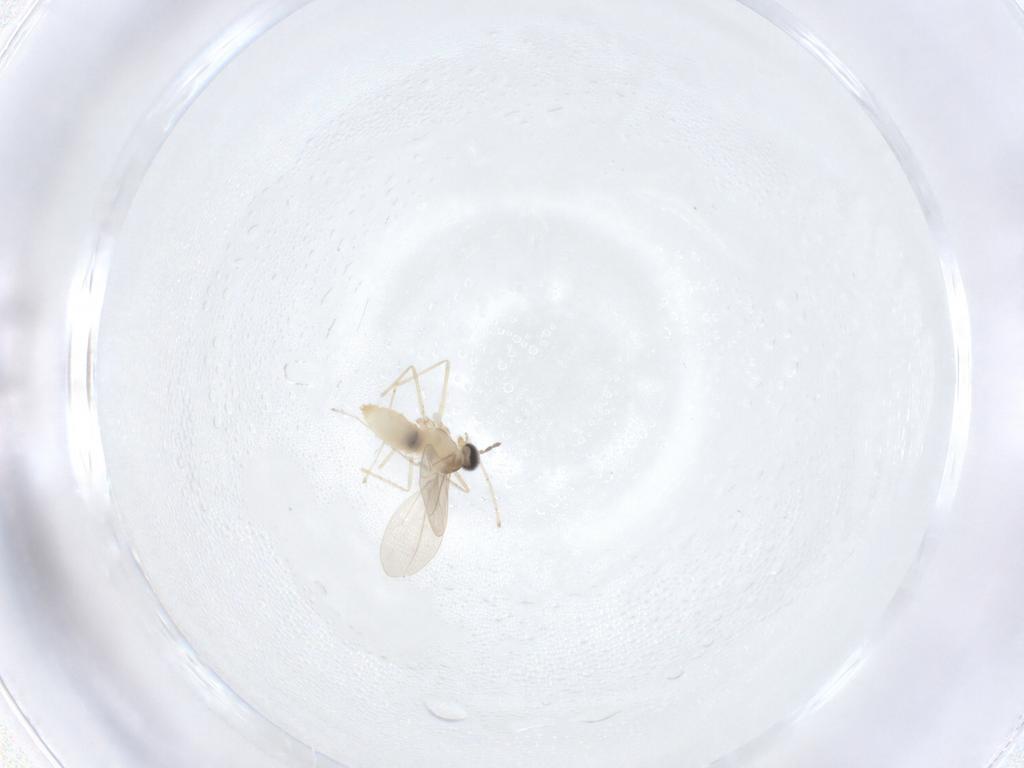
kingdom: Animalia
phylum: Arthropoda
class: Insecta
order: Diptera
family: Cecidomyiidae
